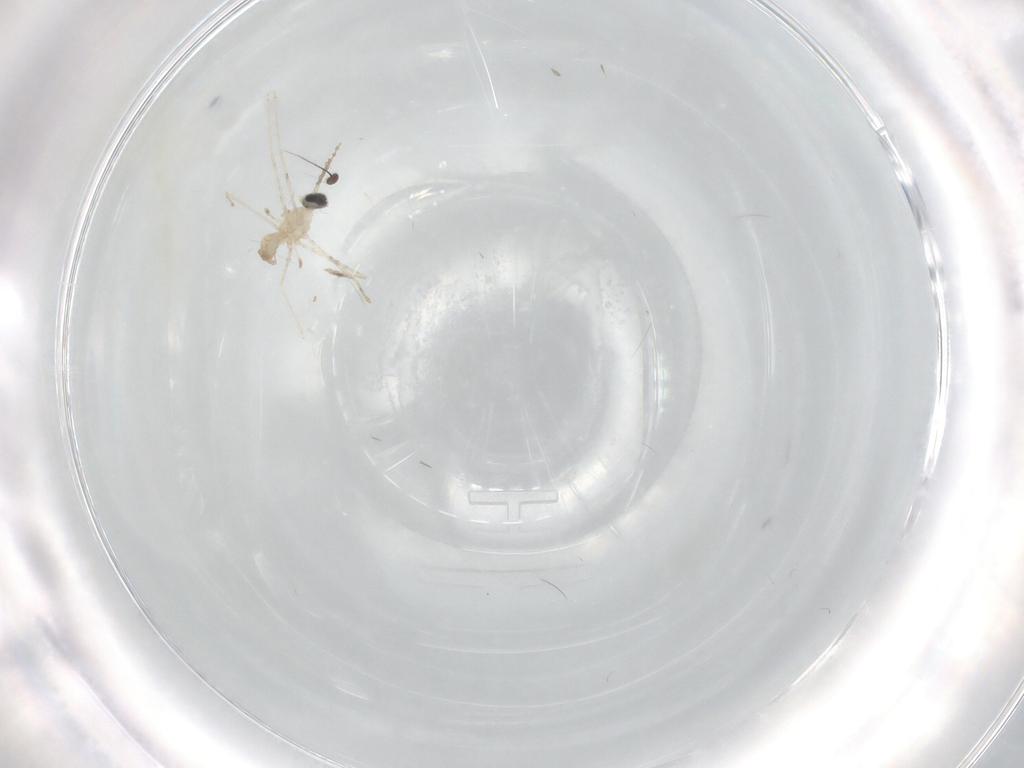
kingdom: Animalia
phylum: Arthropoda
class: Insecta
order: Diptera
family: Dolichopodidae
